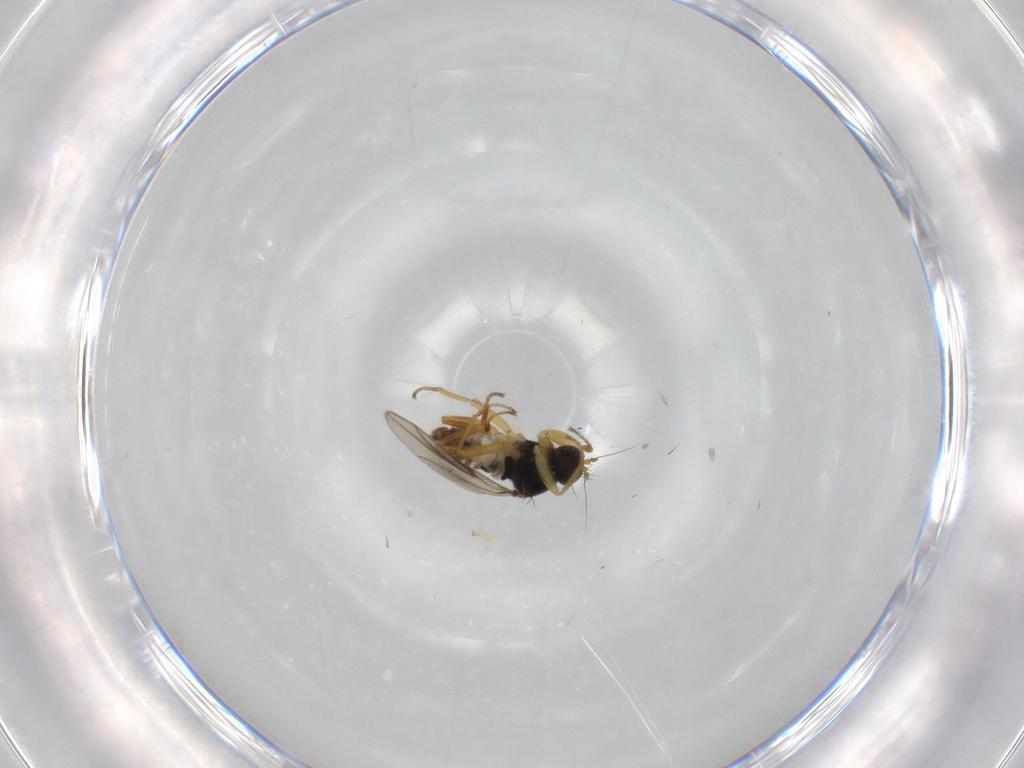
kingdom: Animalia
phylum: Arthropoda
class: Insecta
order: Diptera
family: Hybotidae
